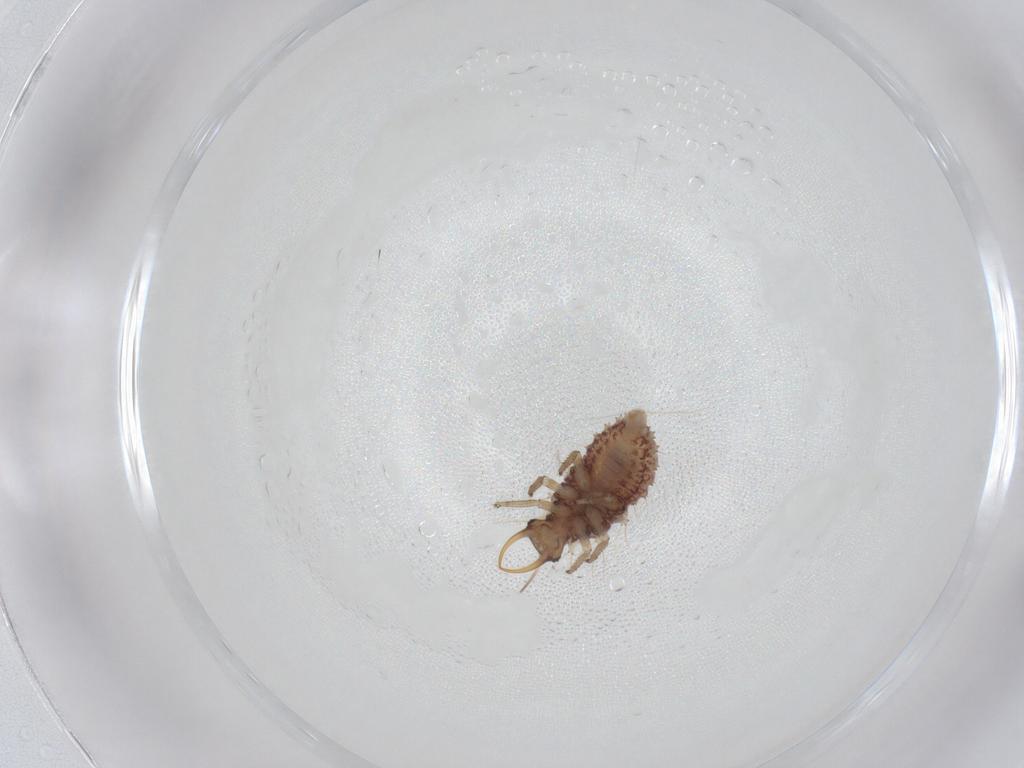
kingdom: Animalia
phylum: Arthropoda
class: Insecta
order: Neuroptera
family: Chrysopidae
